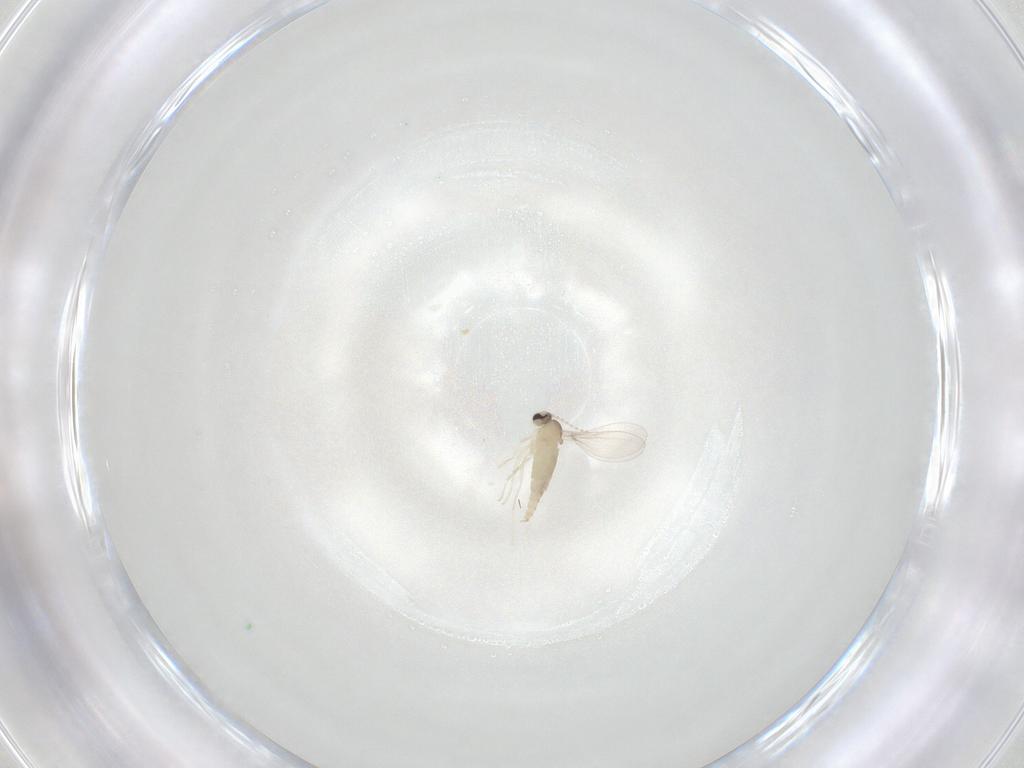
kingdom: Animalia
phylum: Arthropoda
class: Insecta
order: Diptera
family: Cecidomyiidae
